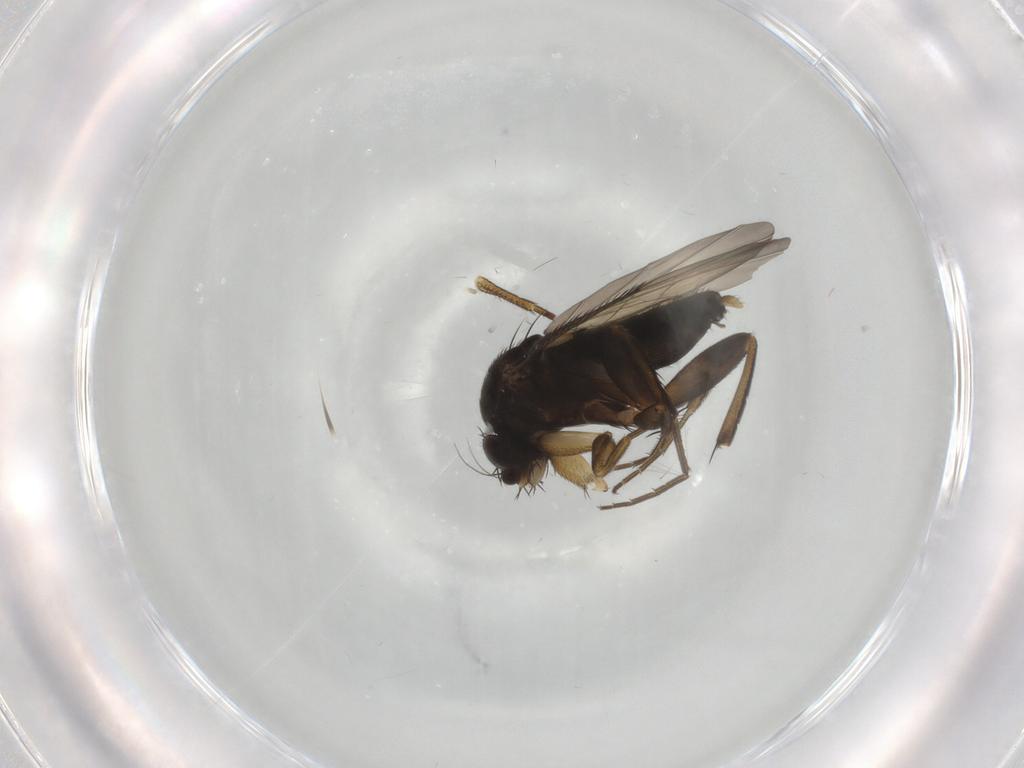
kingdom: Animalia
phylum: Arthropoda
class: Insecta
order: Diptera
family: Phoridae
